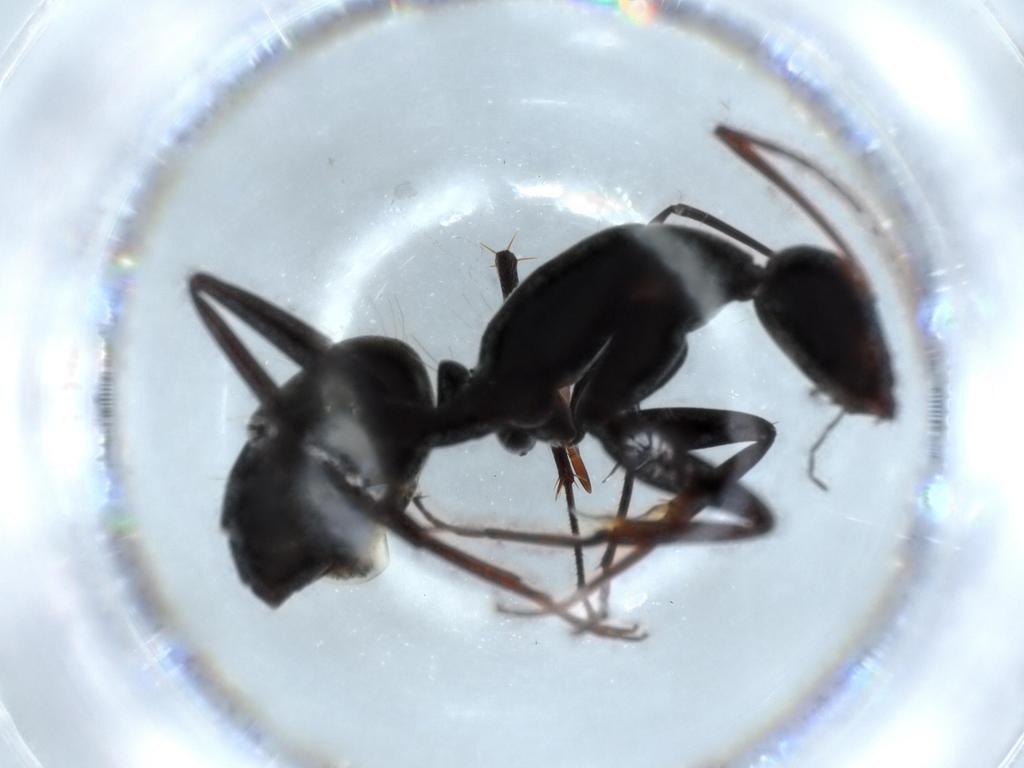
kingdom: Animalia
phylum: Arthropoda
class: Insecta
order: Hymenoptera
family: Formicidae
